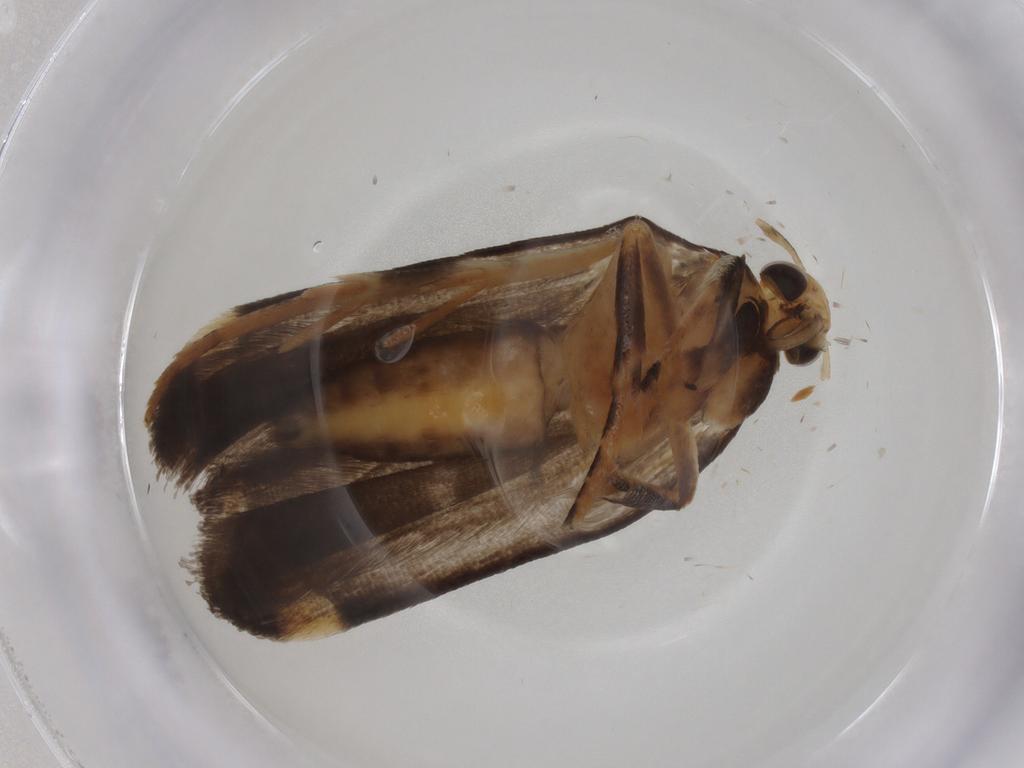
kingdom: Animalia
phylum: Arthropoda
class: Insecta
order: Lepidoptera
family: Gelechiidae
